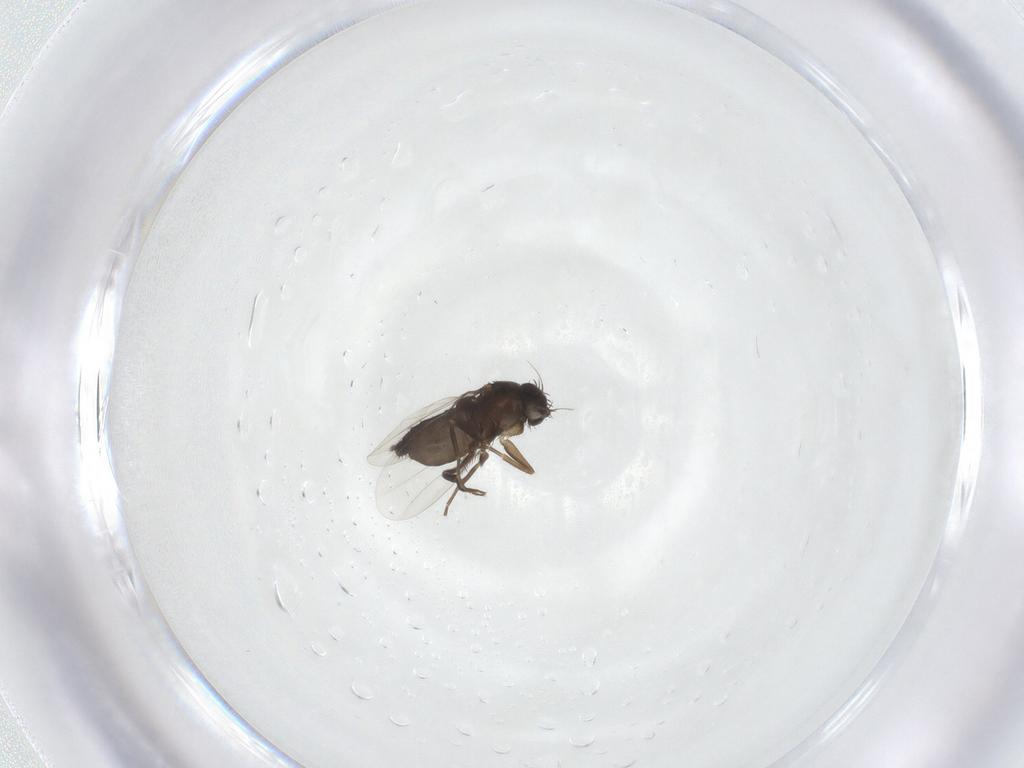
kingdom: Animalia
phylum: Arthropoda
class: Insecta
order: Diptera
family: Phoridae
